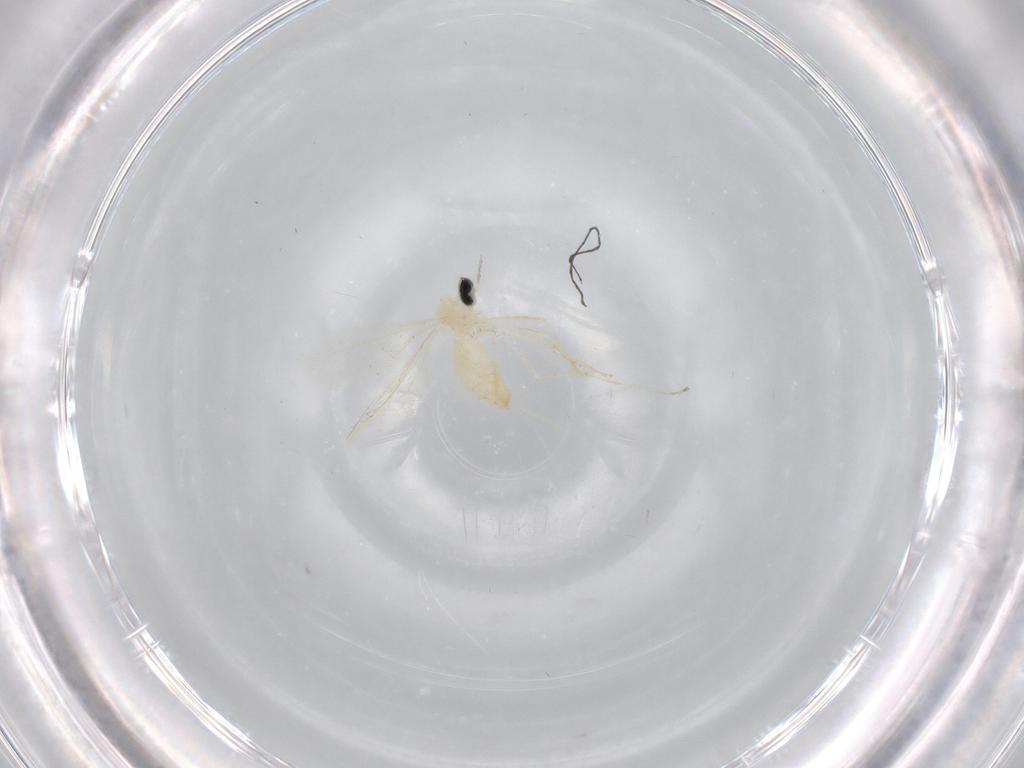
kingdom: Animalia
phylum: Arthropoda
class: Insecta
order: Diptera
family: Cecidomyiidae
